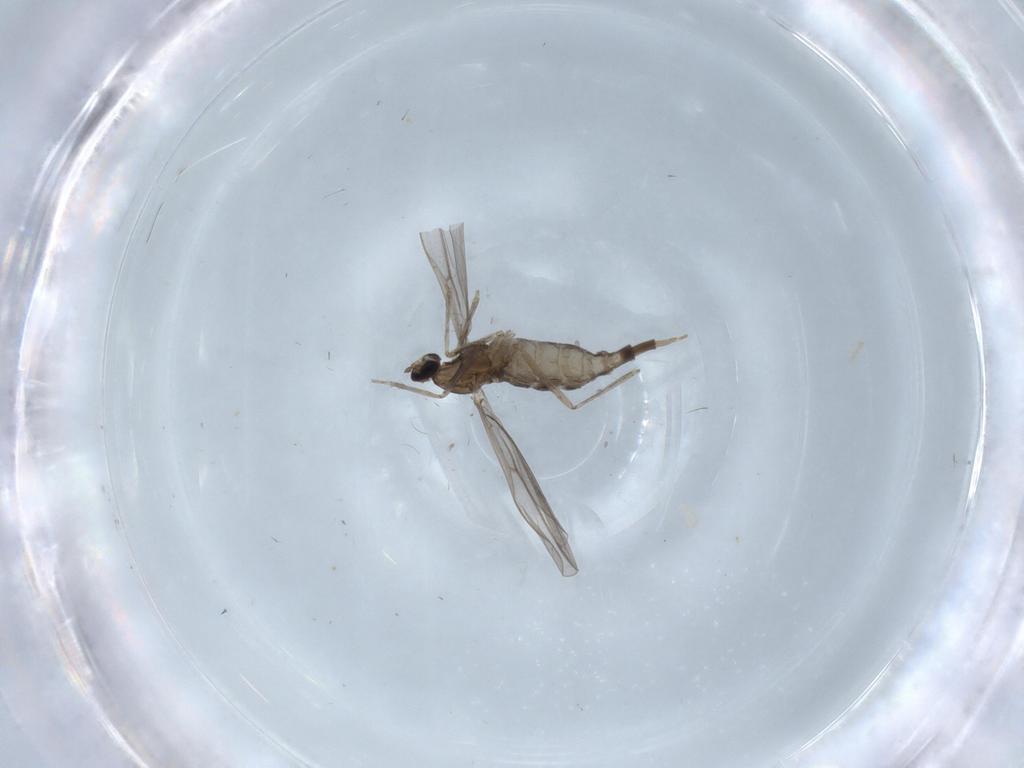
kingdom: Animalia
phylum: Arthropoda
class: Insecta
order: Diptera
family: Cecidomyiidae
